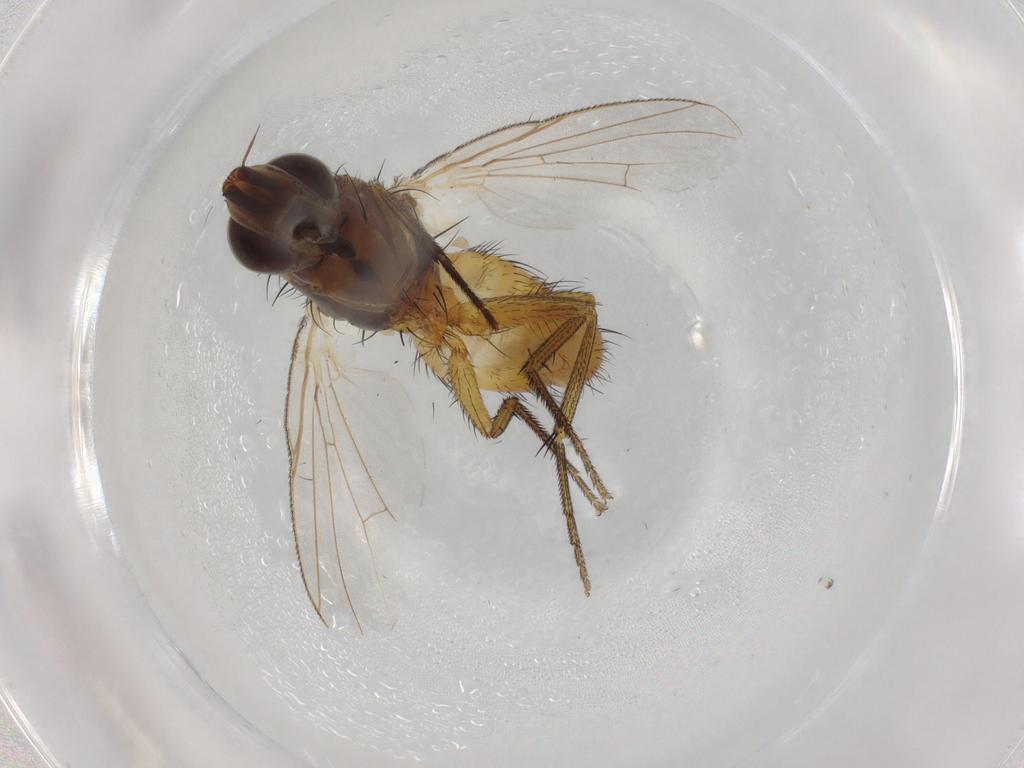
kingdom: Animalia
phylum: Arthropoda
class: Insecta
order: Diptera
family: Muscidae
